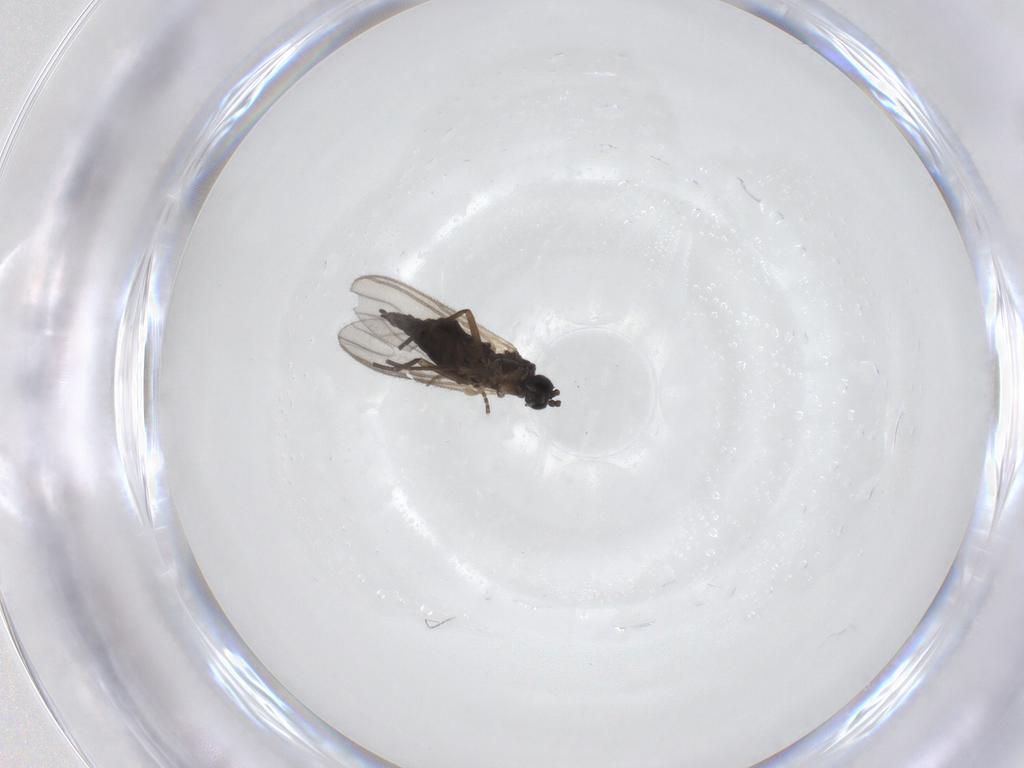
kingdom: Animalia
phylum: Arthropoda
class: Insecta
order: Diptera
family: Sciaridae
